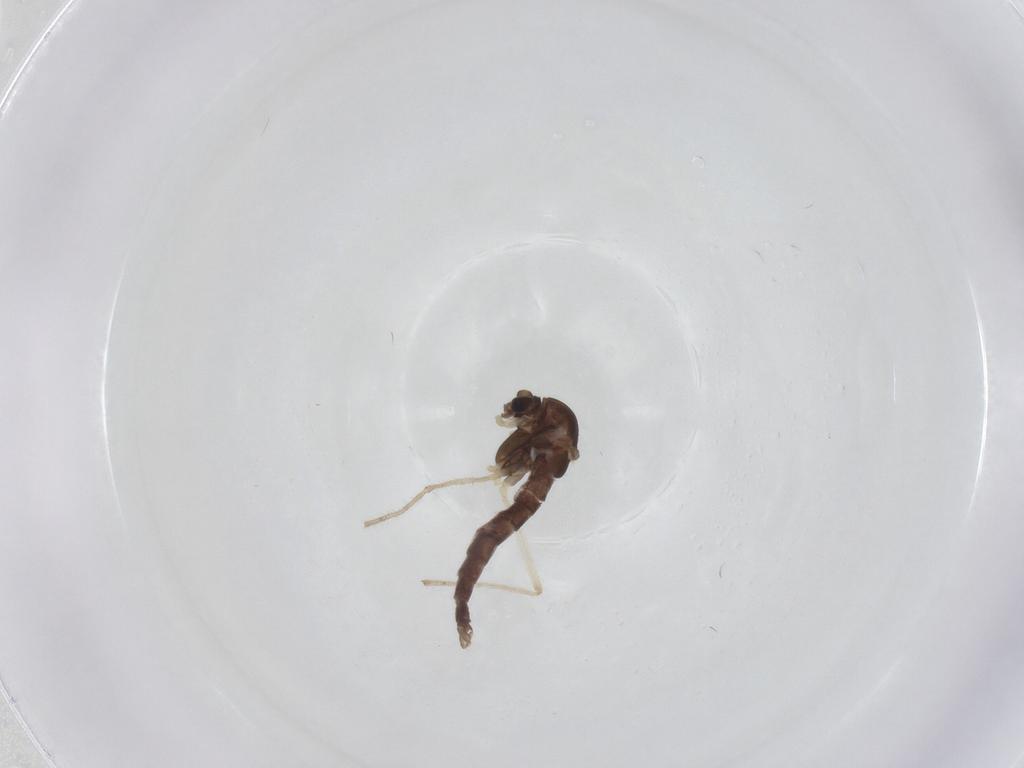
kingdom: Animalia
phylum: Arthropoda
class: Insecta
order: Diptera
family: Chironomidae
